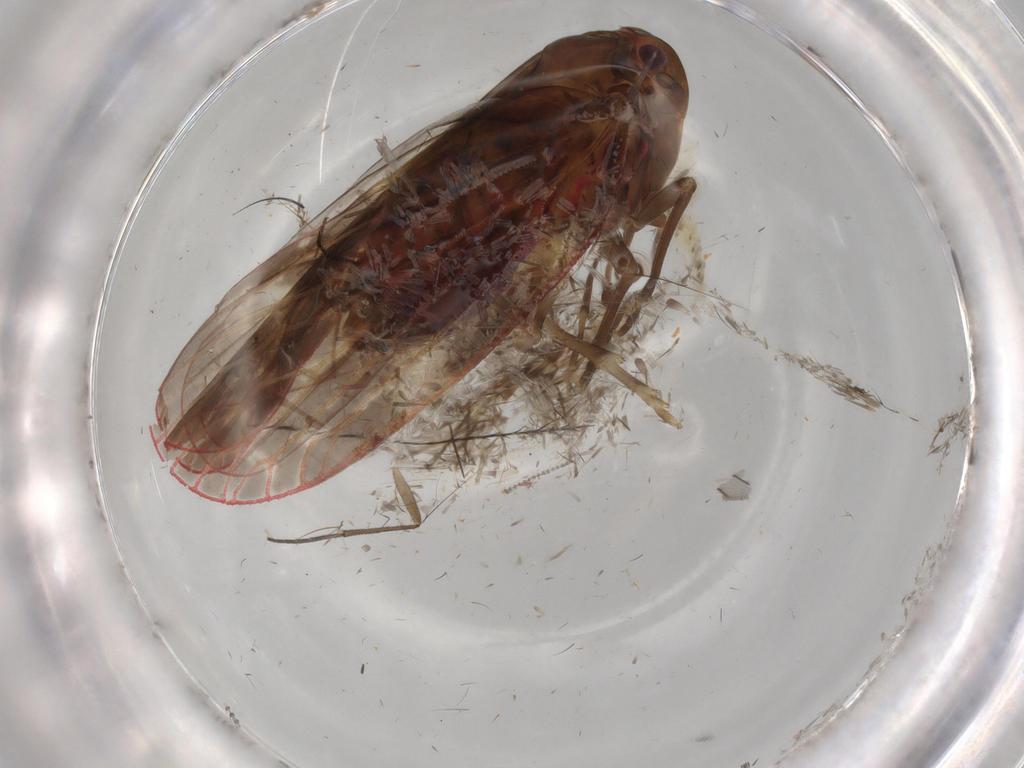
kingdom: Animalia
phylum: Arthropoda
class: Insecta
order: Hemiptera
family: Achilidae
